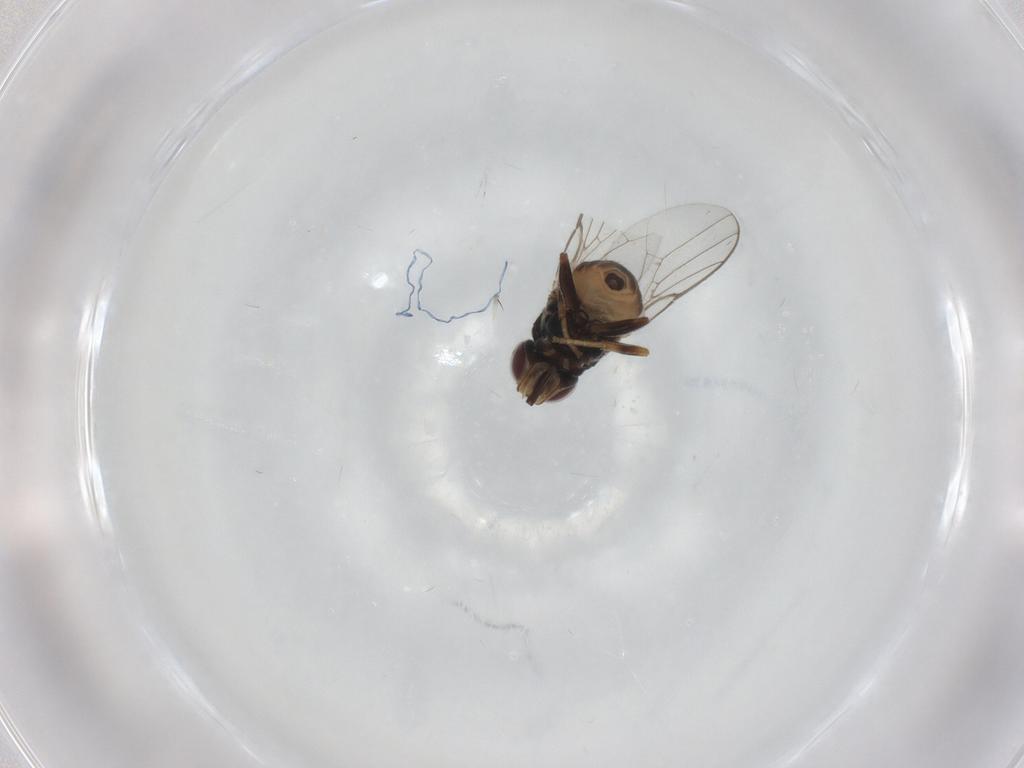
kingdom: Animalia
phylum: Arthropoda
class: Insecta
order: Diptera
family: Chloropidae
